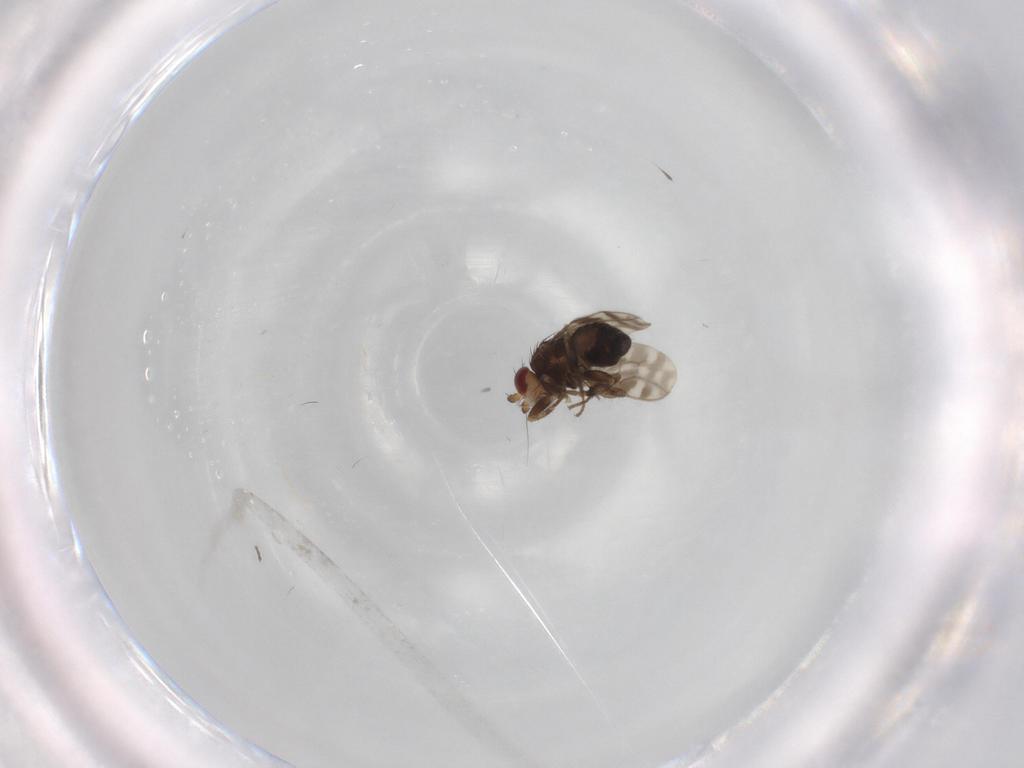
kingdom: Animalia
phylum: Arthropoda
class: Insecta
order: Diptera
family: Sphaeroceridae
